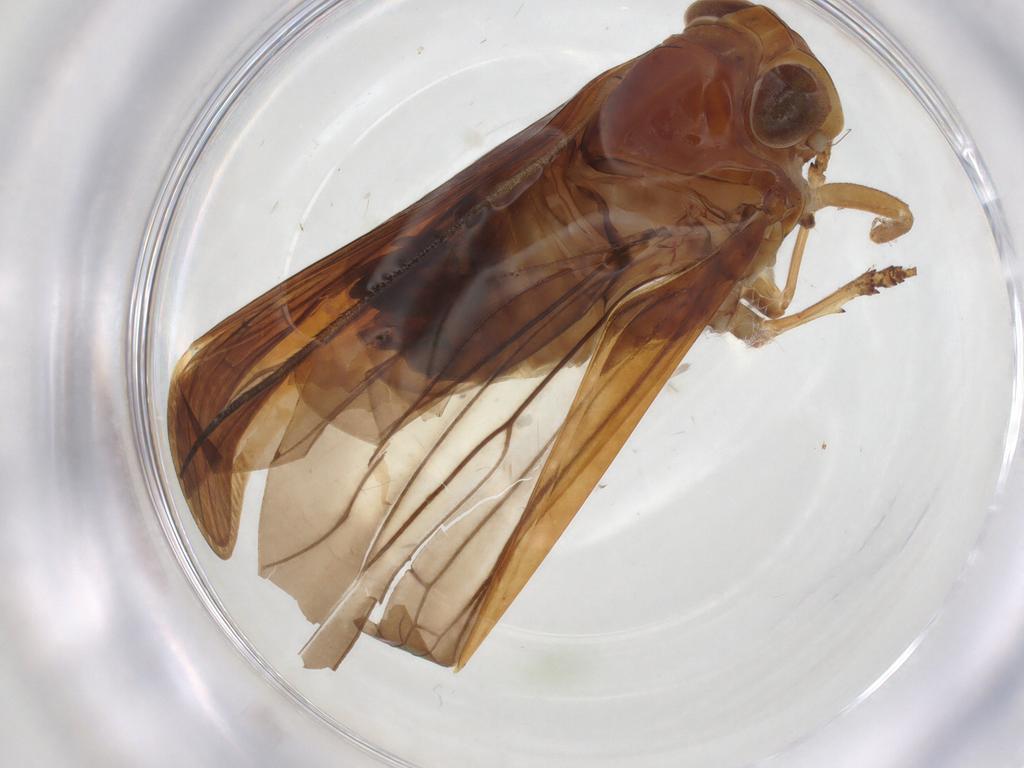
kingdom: Animalia
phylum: Arthropoda
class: Insecta
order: Hemiptera
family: Nogodinidae
